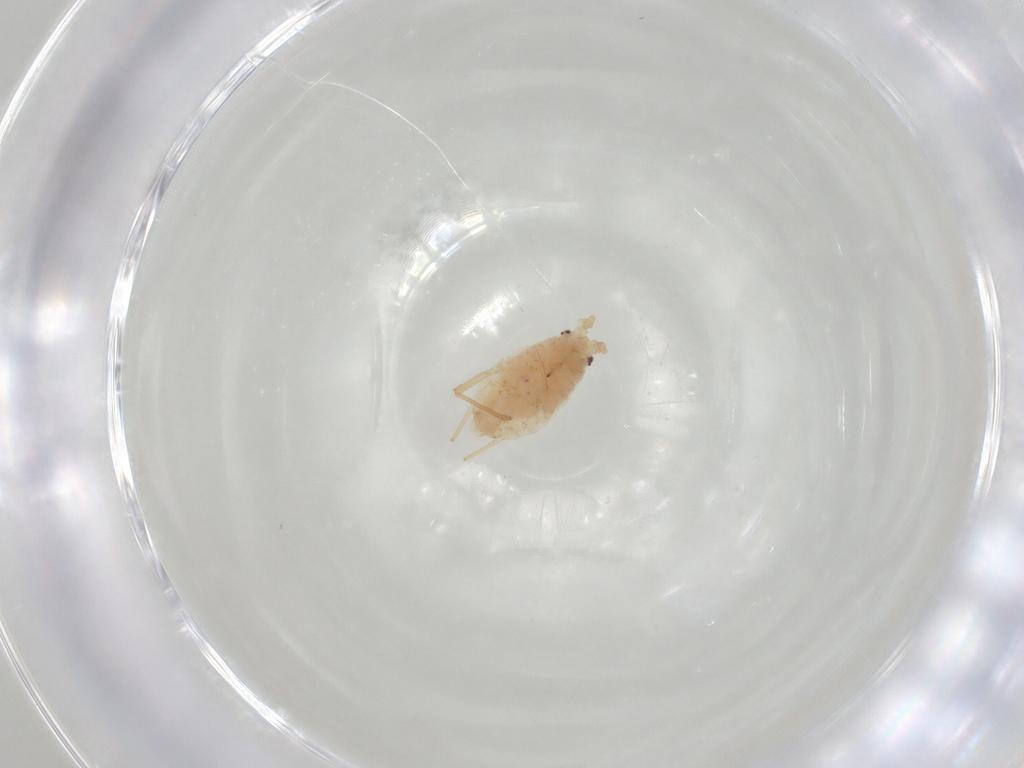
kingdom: Animalia
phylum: Arthropoda
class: Insecta
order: Hemiptera
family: Aphididae
